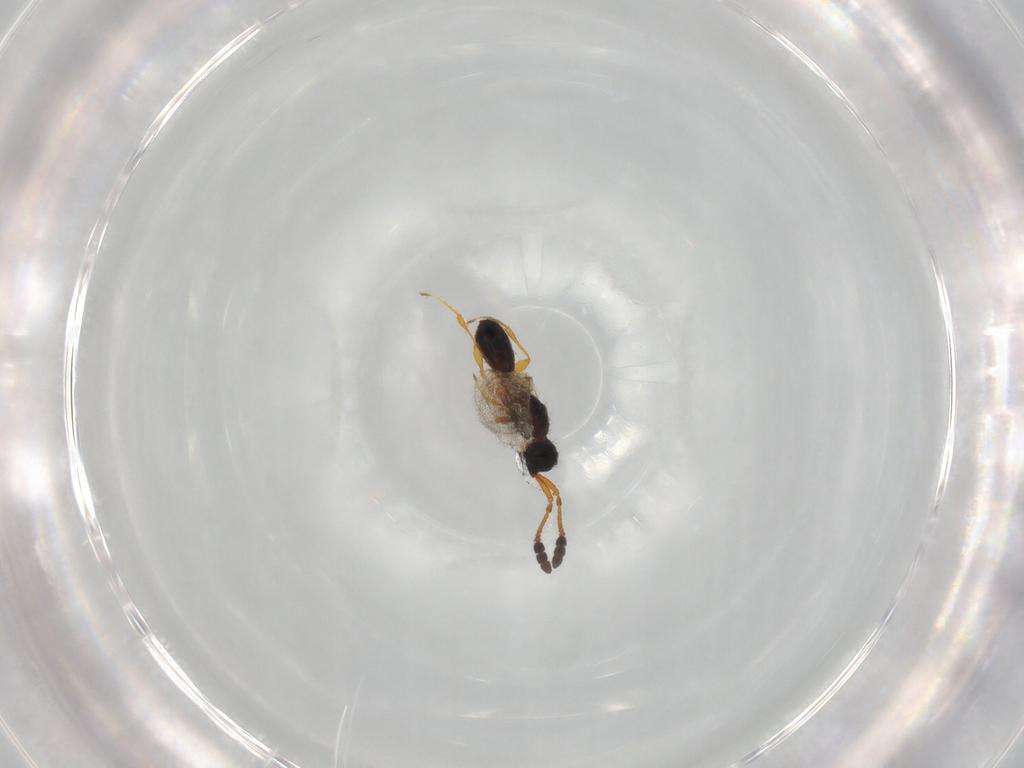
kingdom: Animalia
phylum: Arthropoda
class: Insecta
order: Hymenoptera
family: Diapriidae
